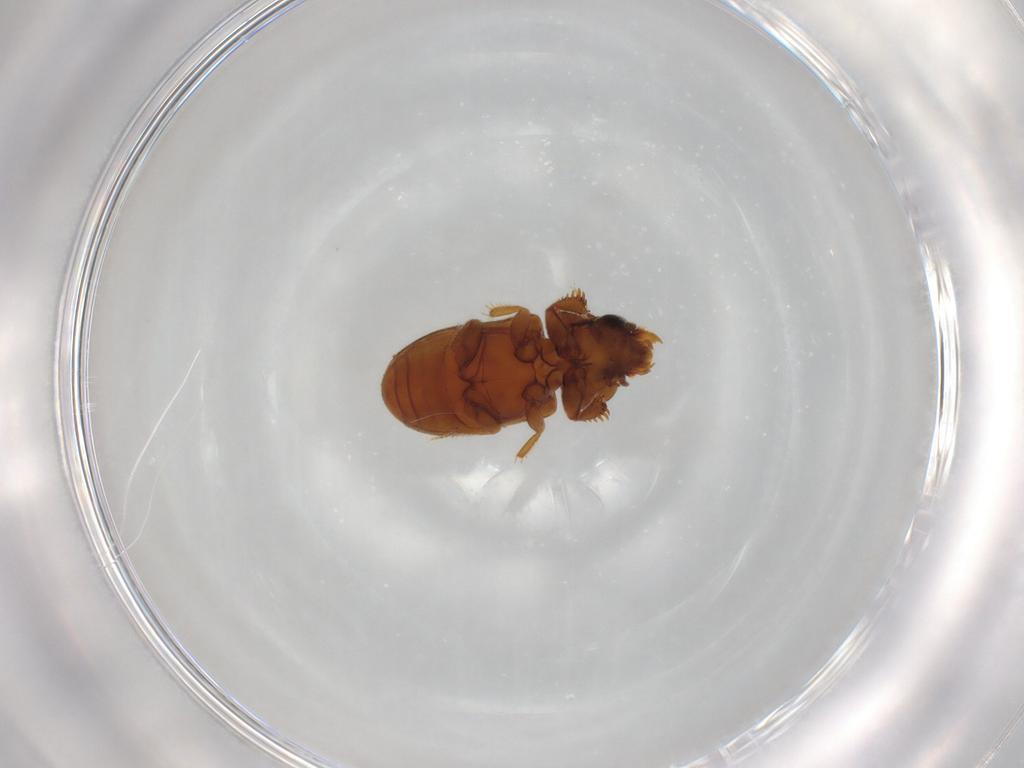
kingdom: Animalia
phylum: Arthropoda
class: Insecta
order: Coleoptera
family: Heteroceridae
